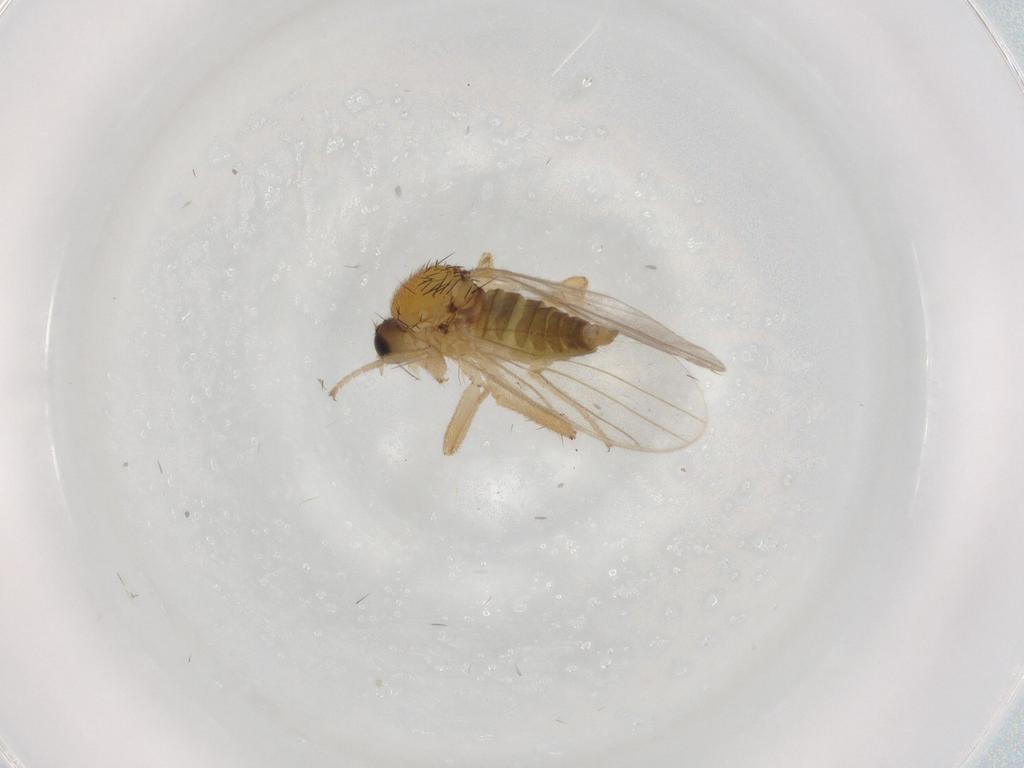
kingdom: Animalia
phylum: Arthropoda
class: Insecta
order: Diptera
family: Hybotidae
